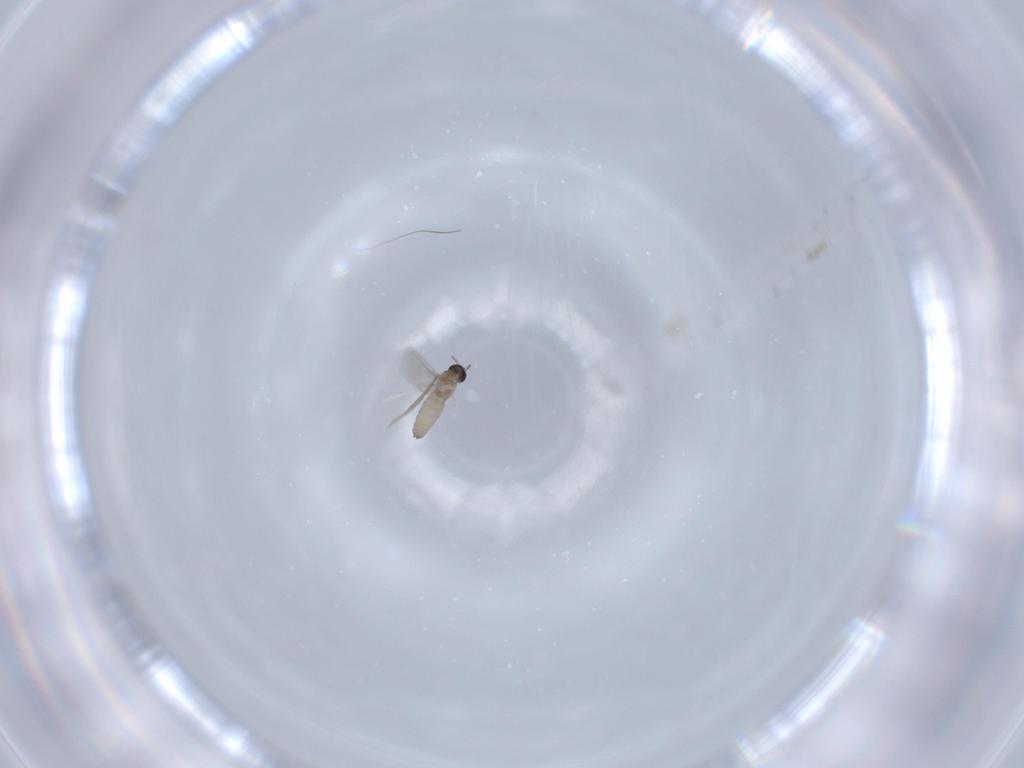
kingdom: Animalia
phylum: Arthropoda
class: Insecta
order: Diptera
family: Cecidomyiidae
